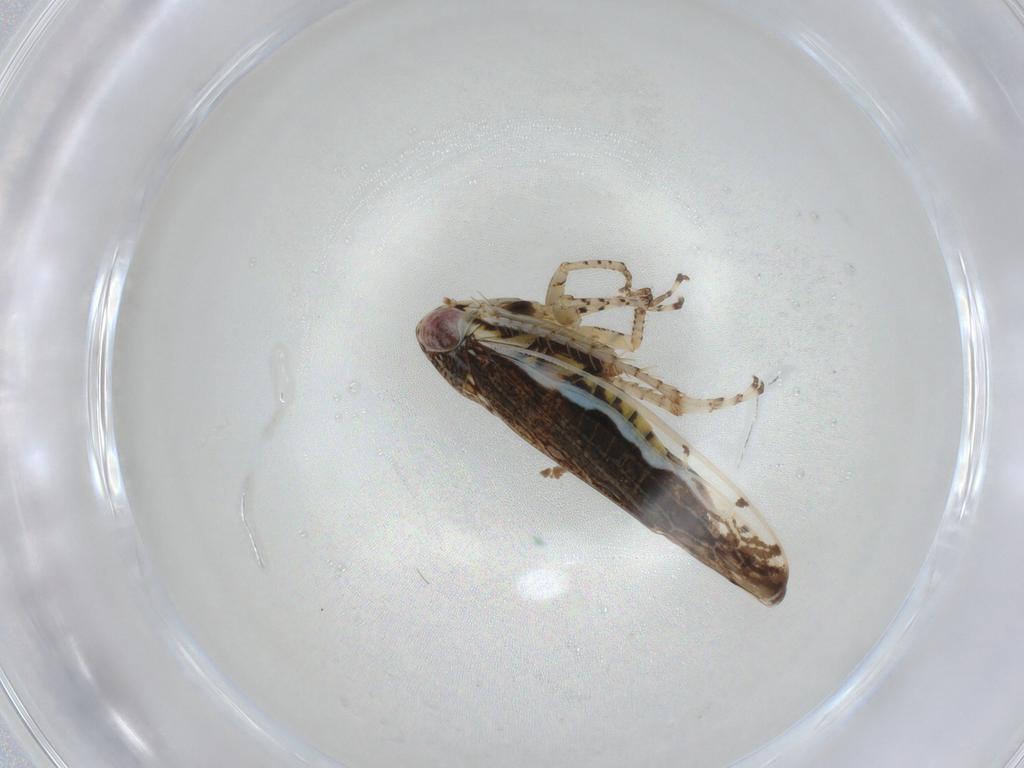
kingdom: Animalia
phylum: Arthropoda
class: Insecta
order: Hemiptera
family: Cicadellidae
